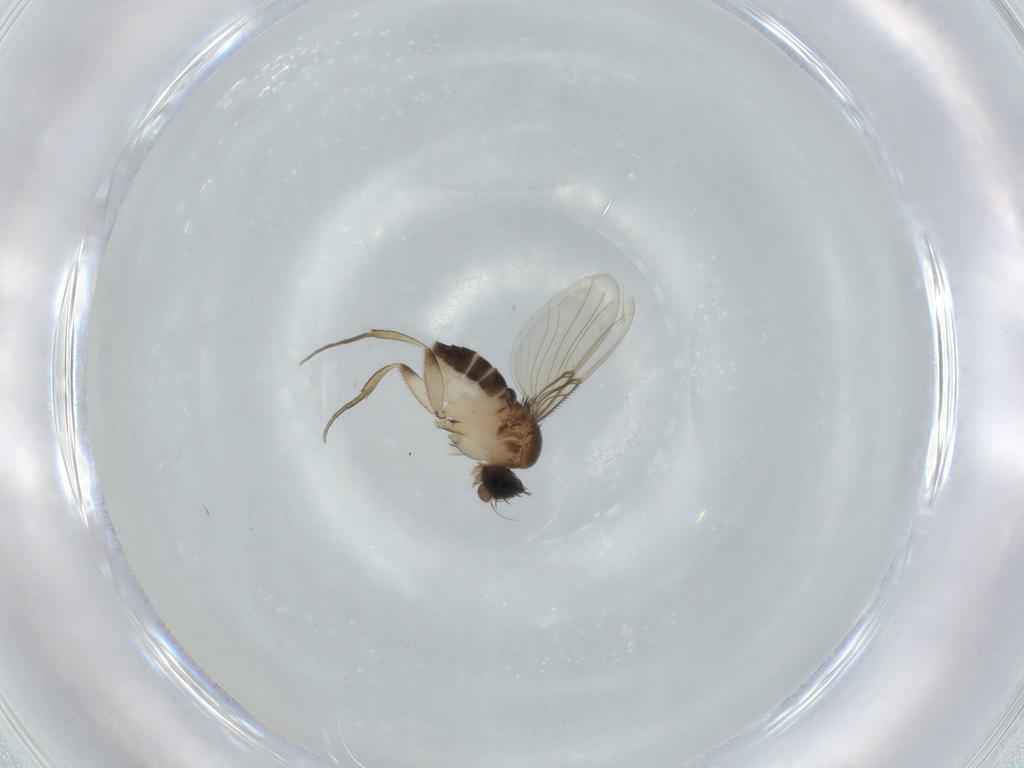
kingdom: Animalia
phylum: Arthropoda
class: Insecta
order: Diptera
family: Phoridae
